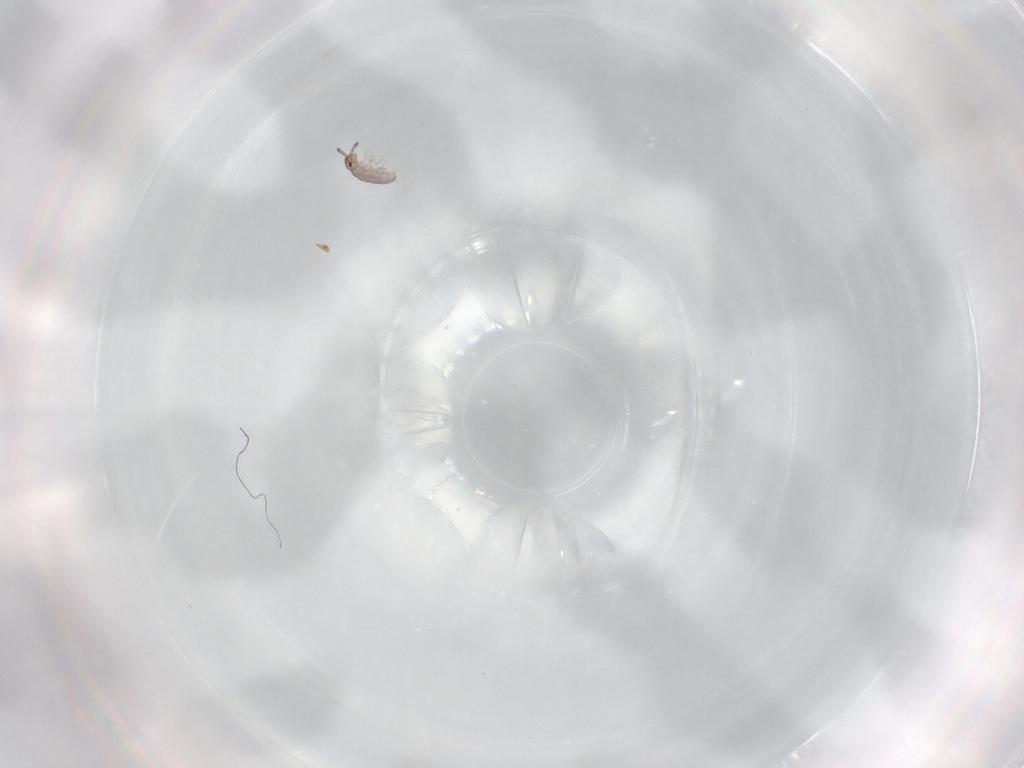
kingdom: Animalia
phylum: Arthropoda
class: Collembola
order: Entomobryomorpha
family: Isotomidae
